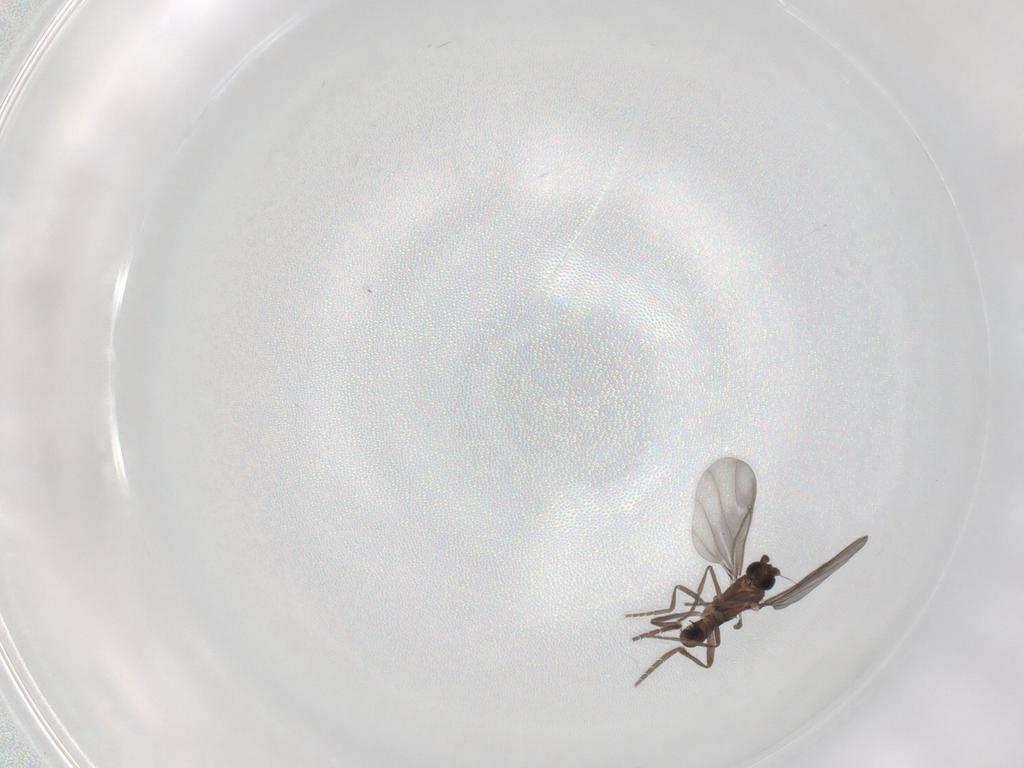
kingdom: Animalia
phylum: Arthropoda
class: Insecta
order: Diptera
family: Phoridae
